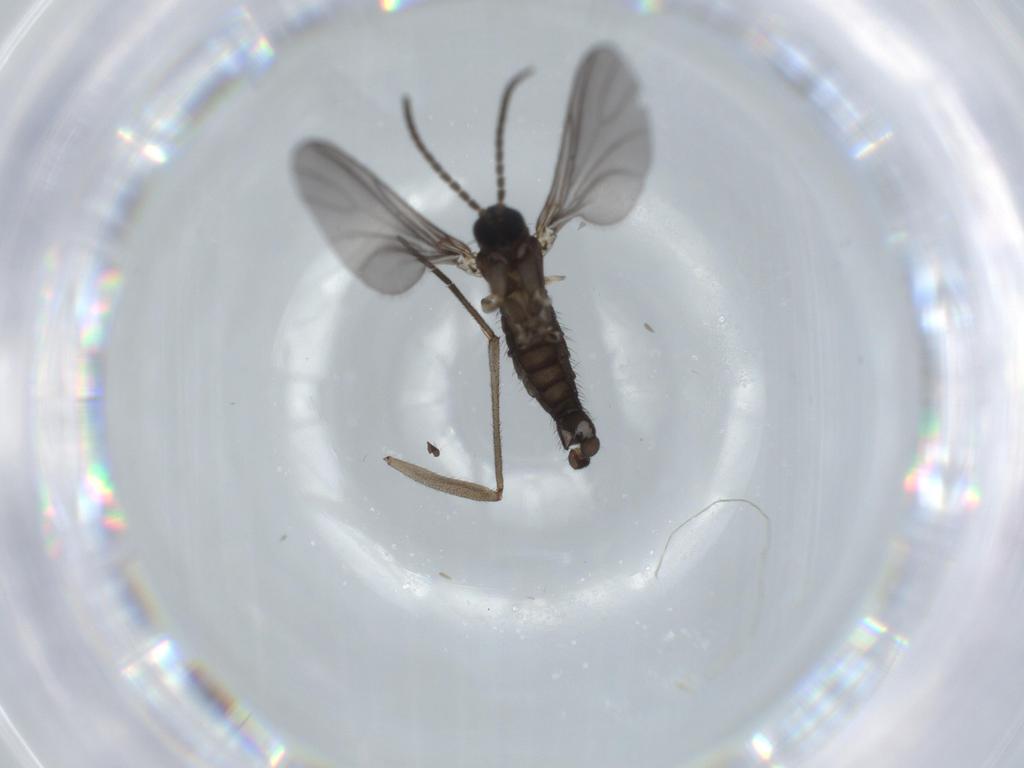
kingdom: Animalia
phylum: Arthropoda
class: Insecta
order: Diptera
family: Sciaridae
